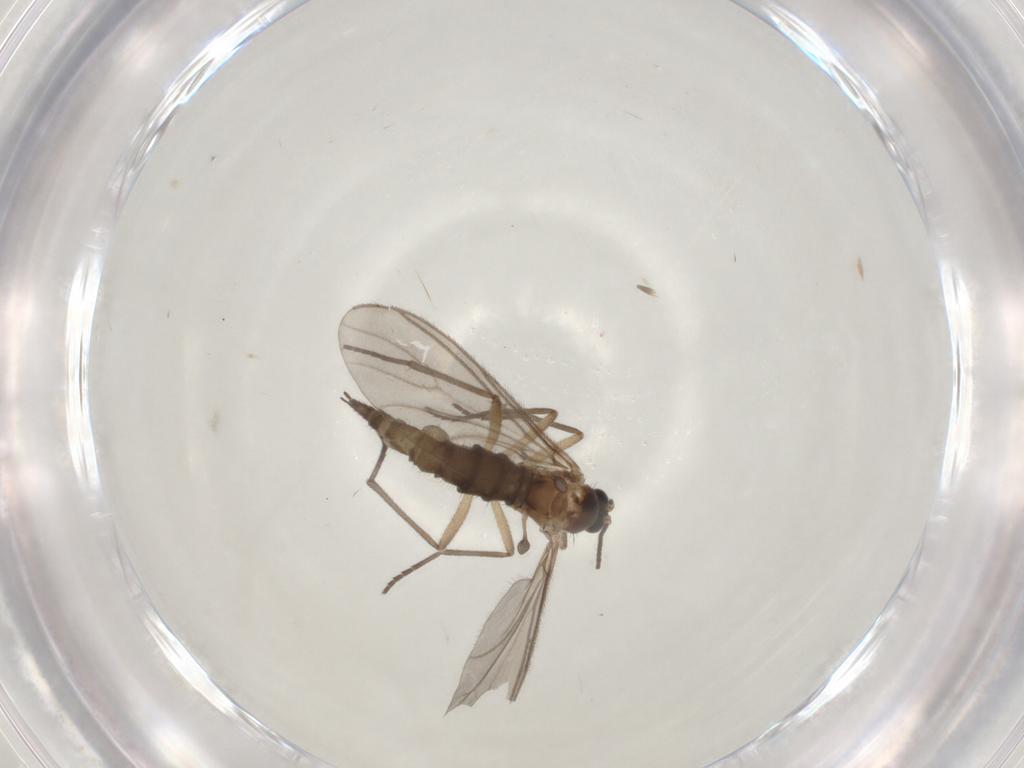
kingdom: Animalia
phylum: Arthropoda
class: Insecta
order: Diptera
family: Sciaridae
